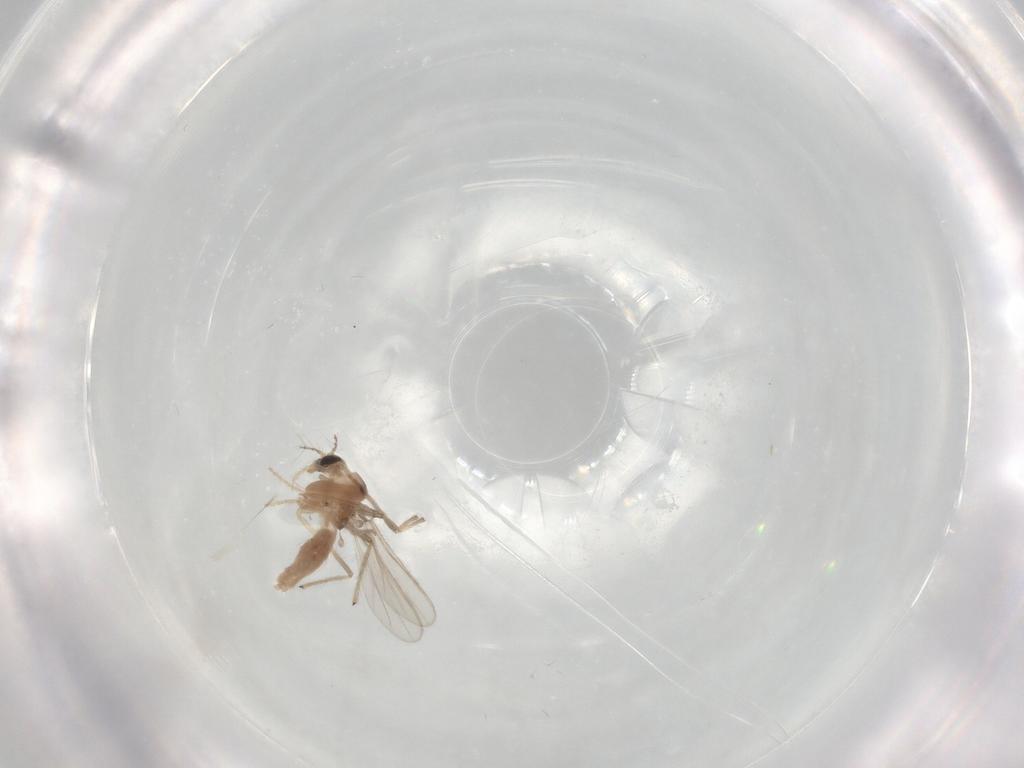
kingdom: Animalia
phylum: Arthropoda
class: Insecta
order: Diptera
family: Chironomidae
